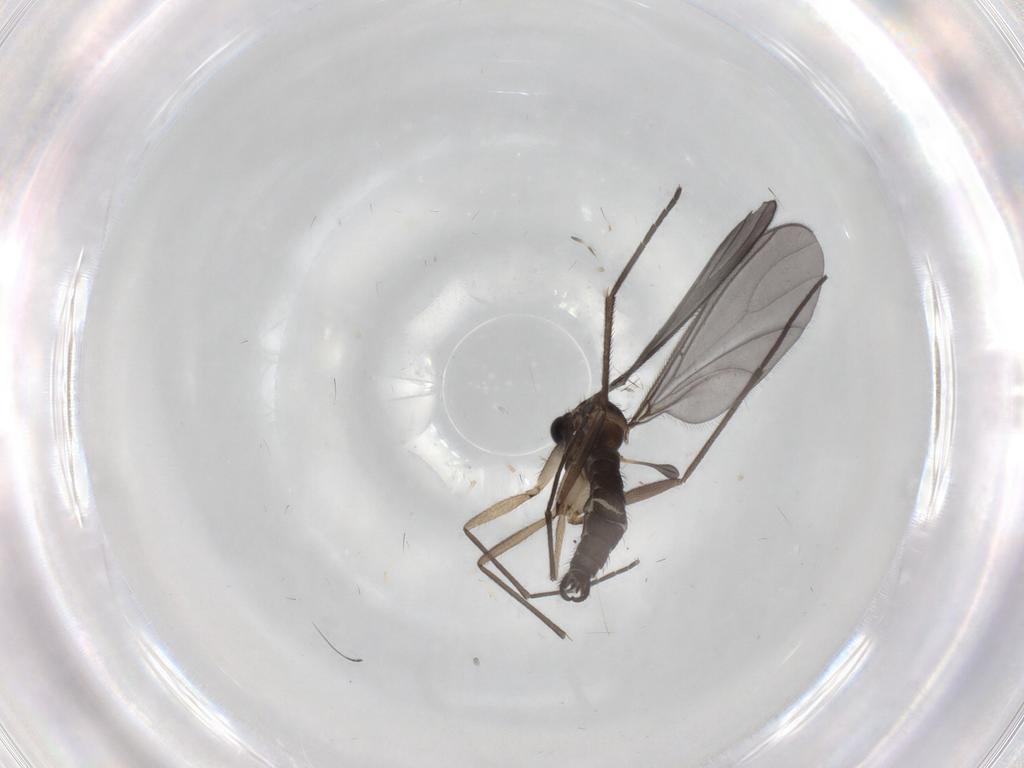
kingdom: Animalia
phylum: Arthropoda
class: Insecta
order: Diptera
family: Sciaridae
